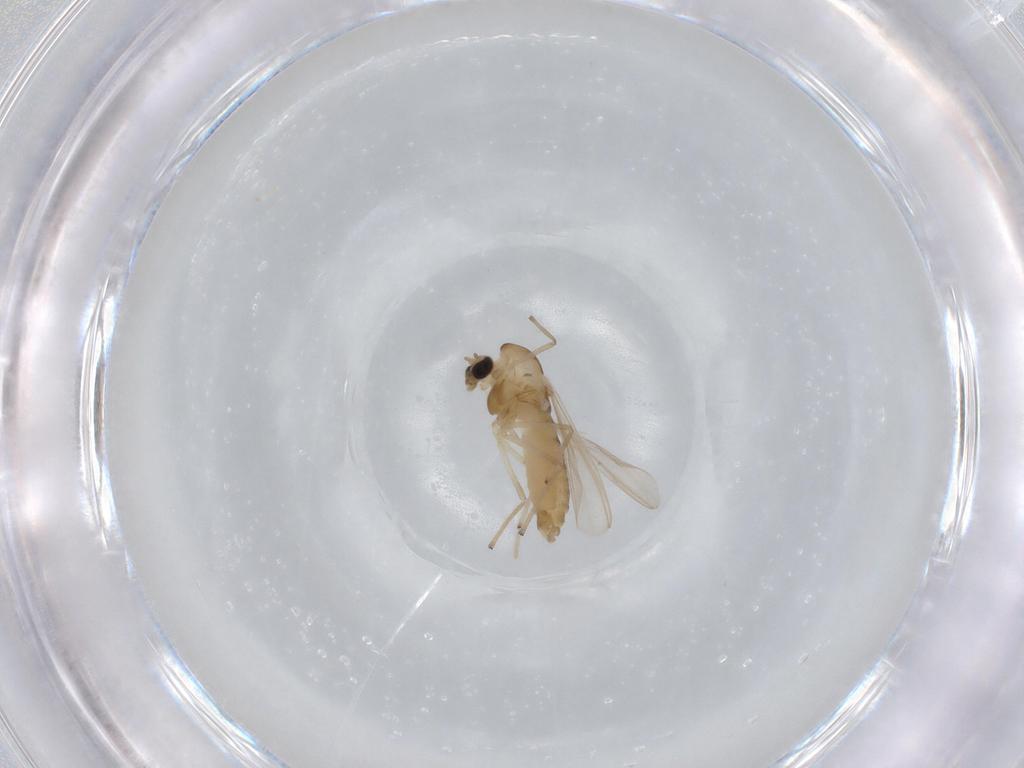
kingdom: Animalia
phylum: Arthropoda
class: Insecta
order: Diptera
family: Chironomidae
